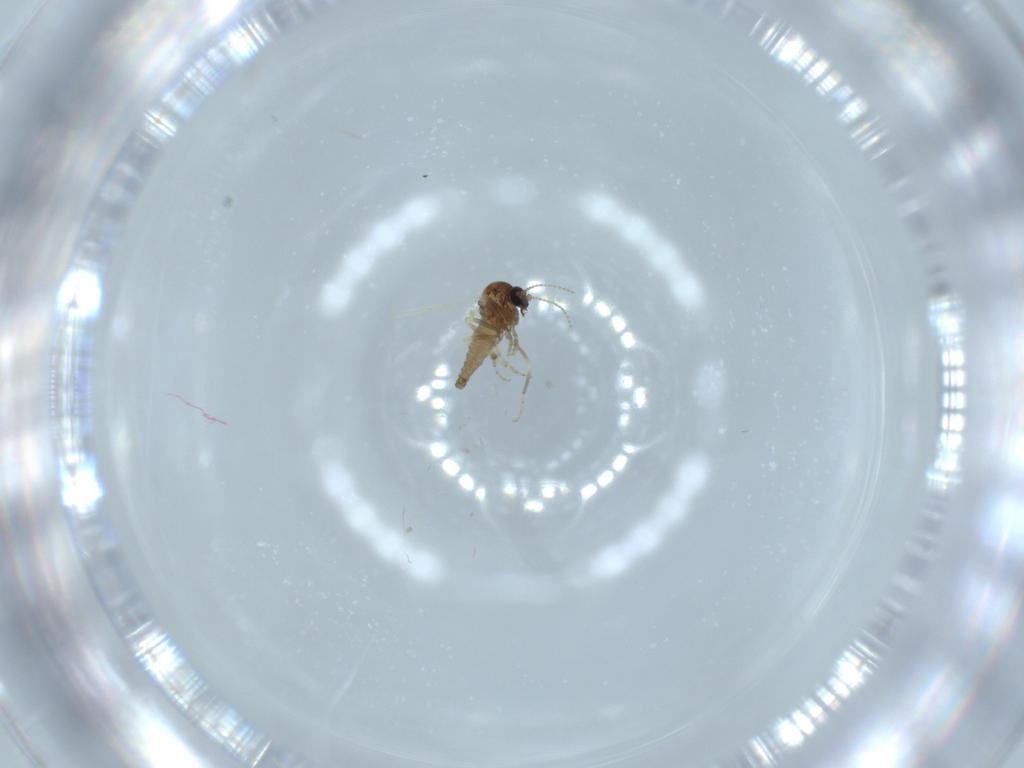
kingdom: Animalia
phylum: Arthropoda
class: Insecta
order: Diptera
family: Ceratopogonidae
